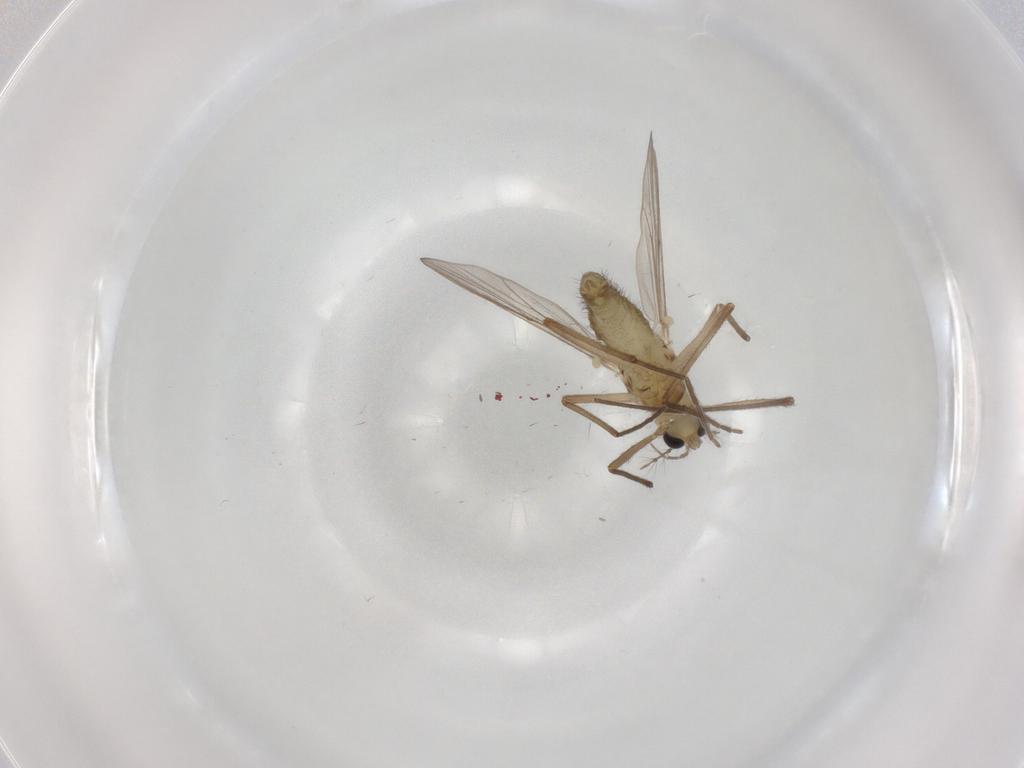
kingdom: Animalia
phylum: Arthropoda
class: Insecta
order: Diptera
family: Chironomidae
